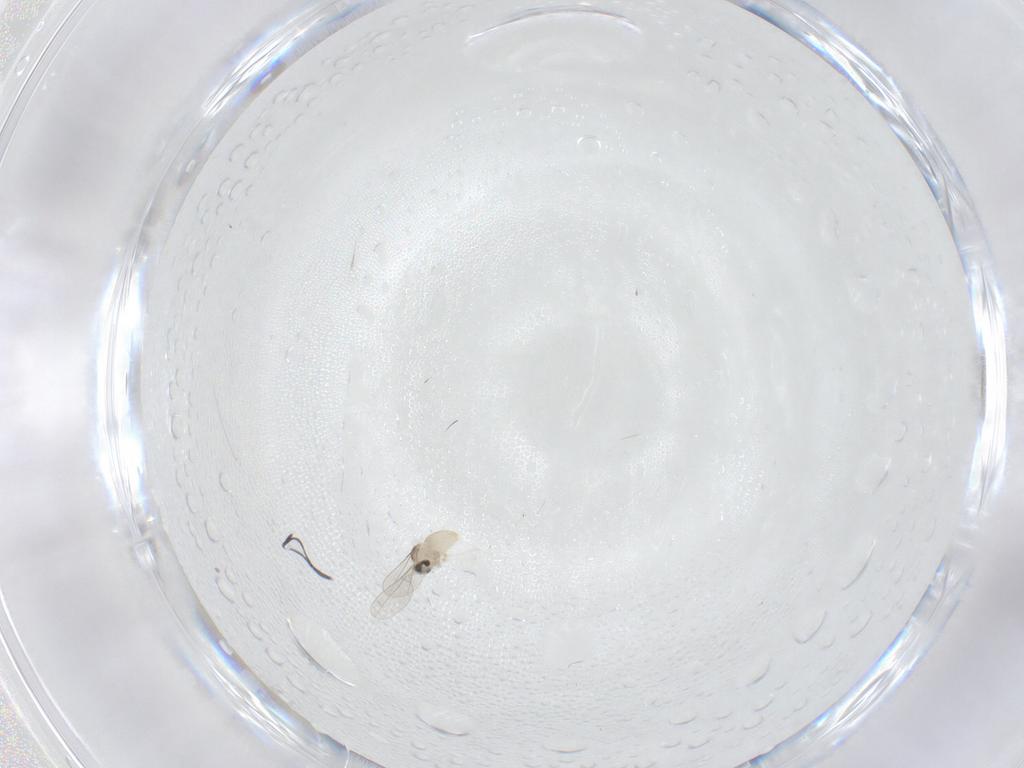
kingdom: Animalia
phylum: Arthropoda
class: Insecta
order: Diptera
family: Cecidomyiidae
